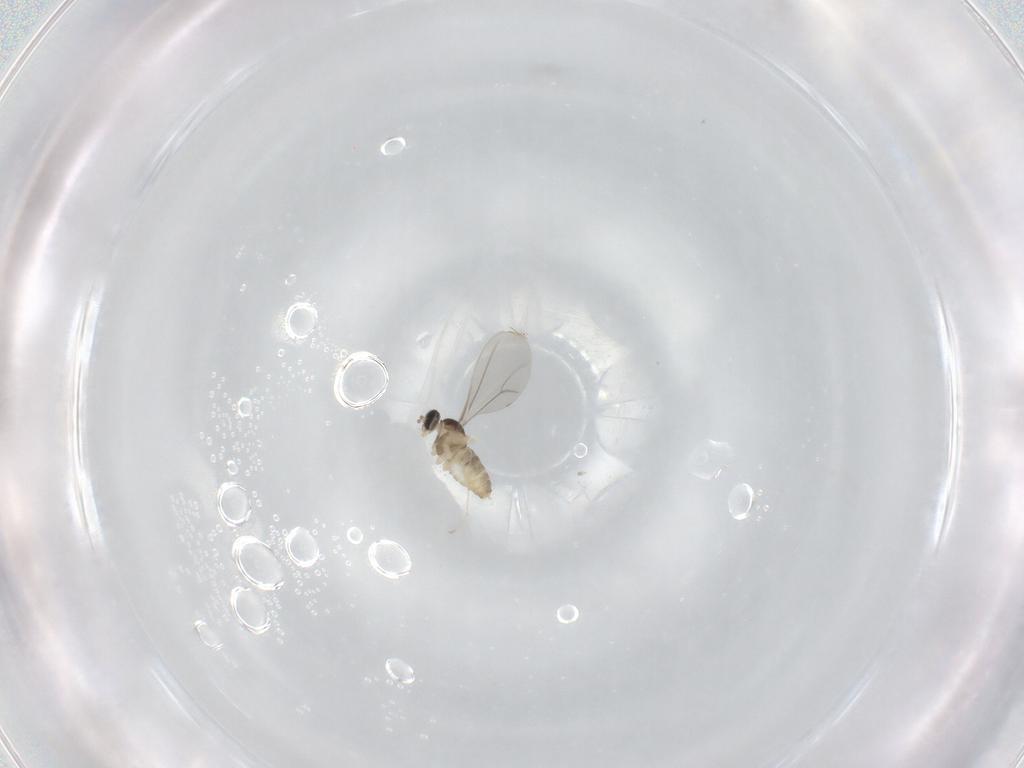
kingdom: Animalia
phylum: Arthropoda
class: Insecta
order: Diptera
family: Cecidomyiidae
